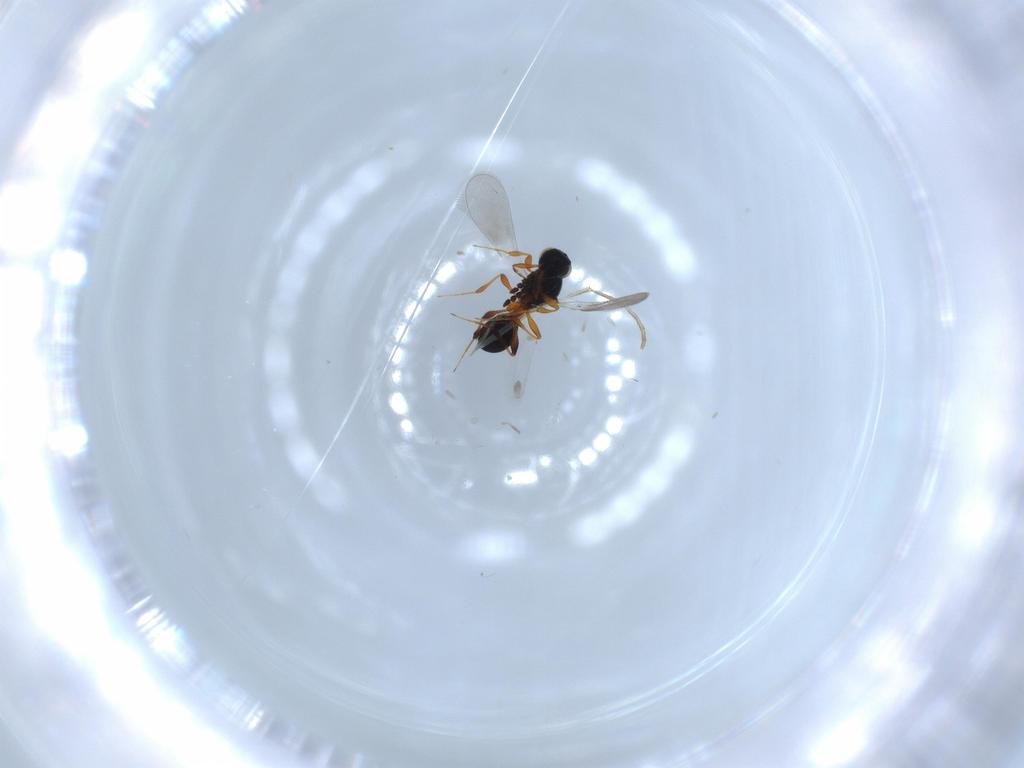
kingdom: Animalia
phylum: Arthropoda
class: Insecta
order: Hymenoptera
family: Platygastridae
